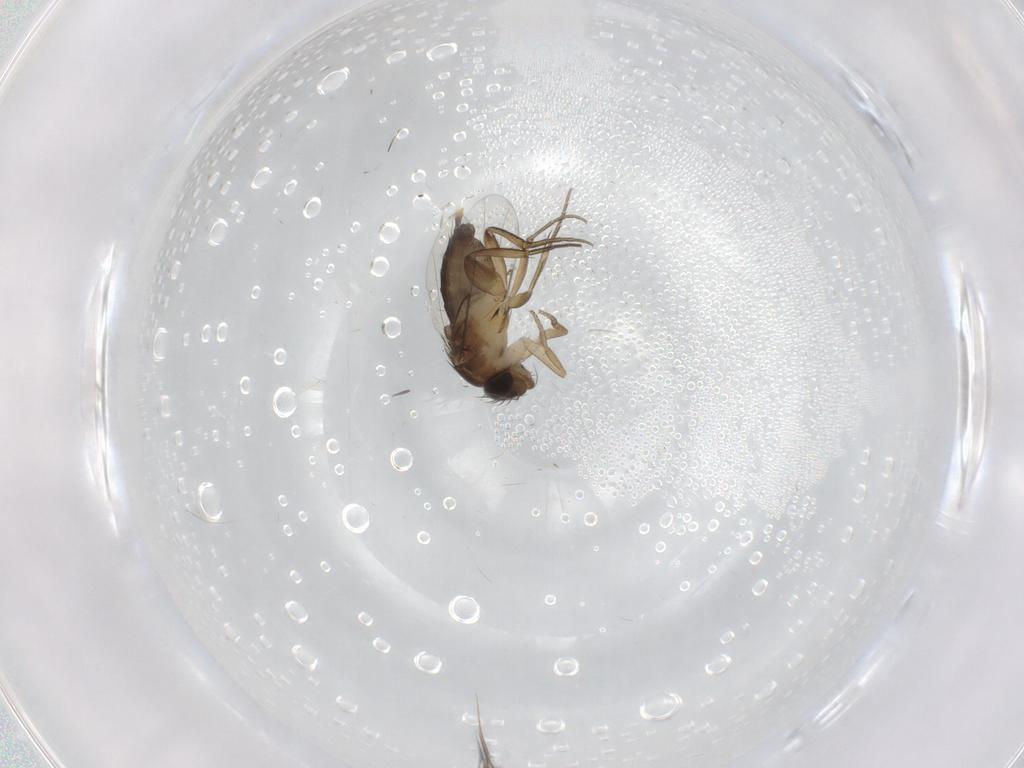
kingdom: Animalia
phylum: Arthropoda
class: Insecta
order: Diptera
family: Phoridae
